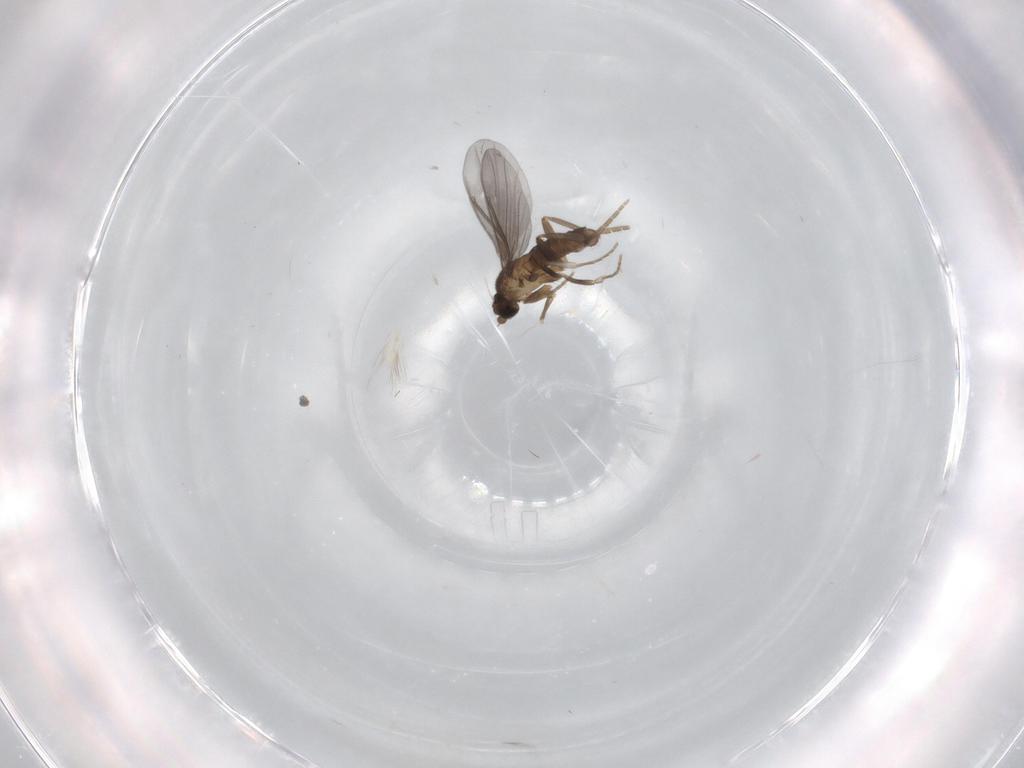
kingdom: Animalia
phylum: Arthropoda
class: Insecta
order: Diptera
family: Phoridae
